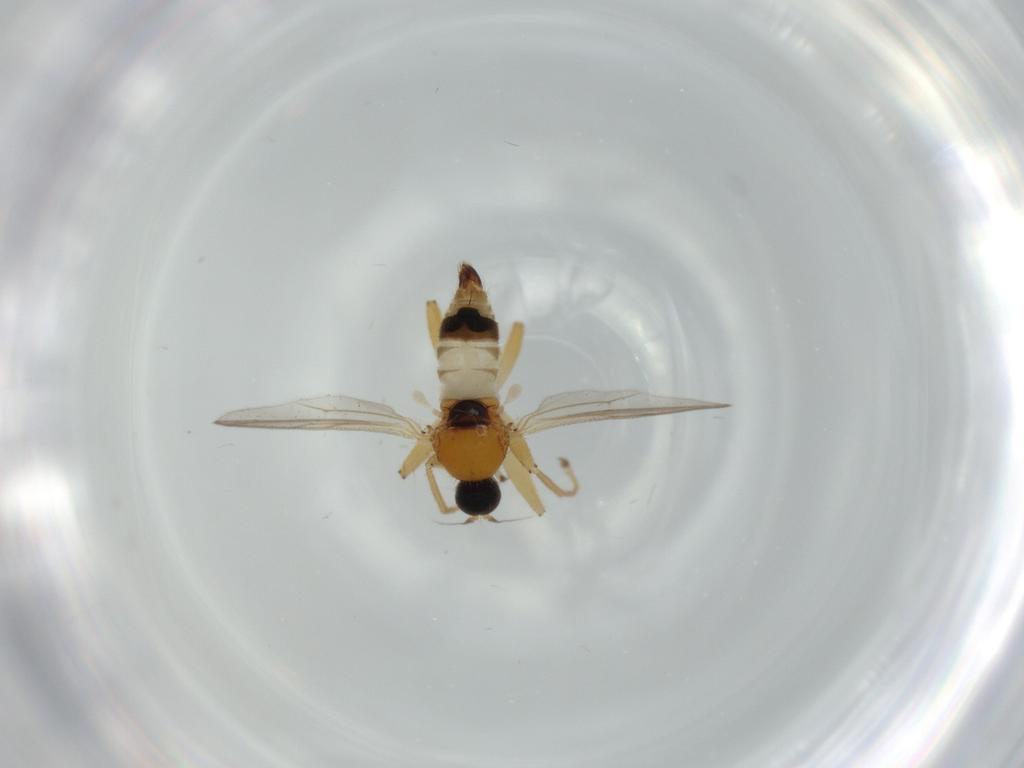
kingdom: Animalia
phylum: Arthropoda
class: Insecta
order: Diptera
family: Hybotidae
